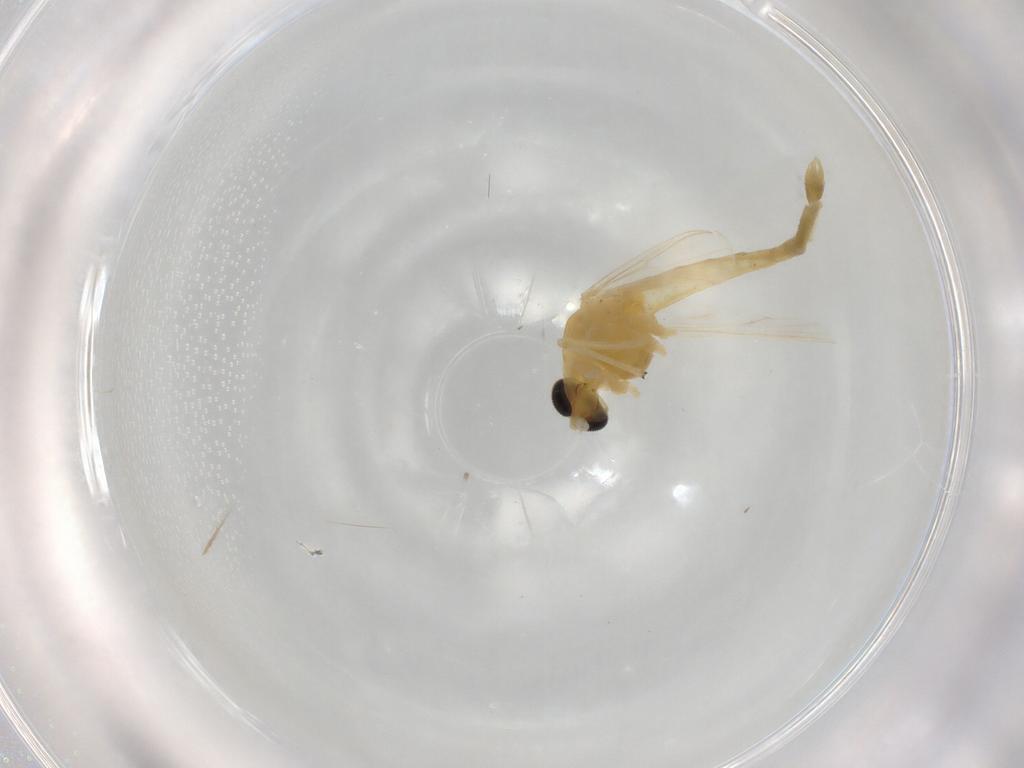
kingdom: Animalia
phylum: Arthropoda
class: Insecta
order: Diptera
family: Chironomidae
